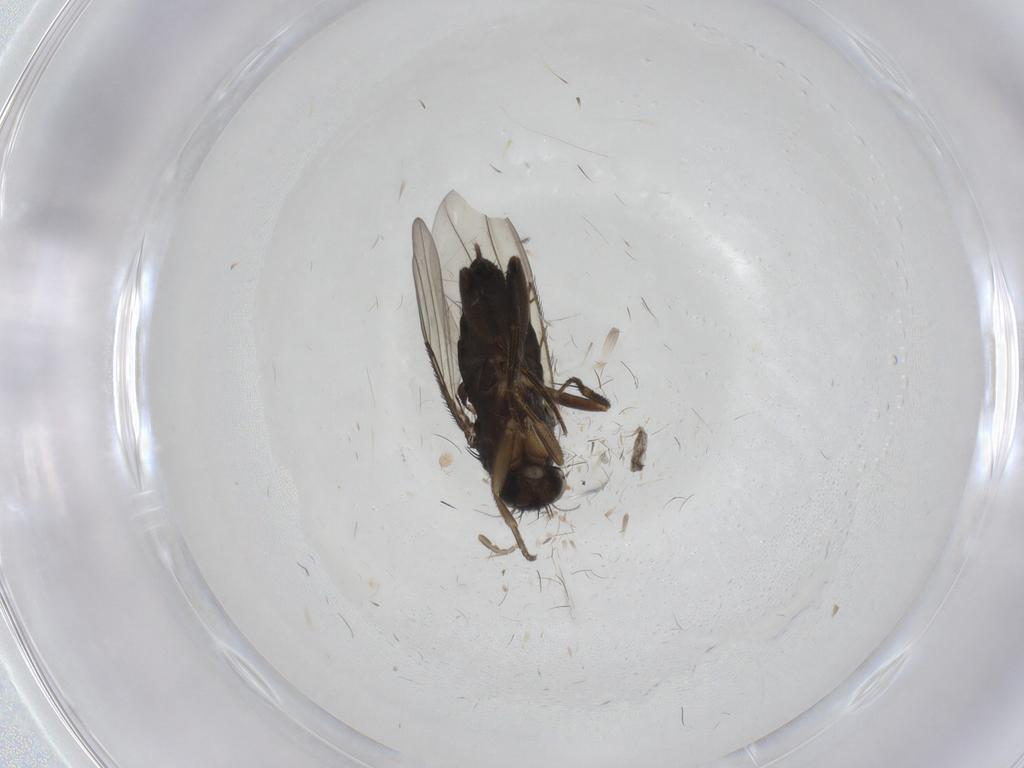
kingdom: Animalia
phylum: Arthropoda
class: Insecta
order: Diptera
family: Phoridae
